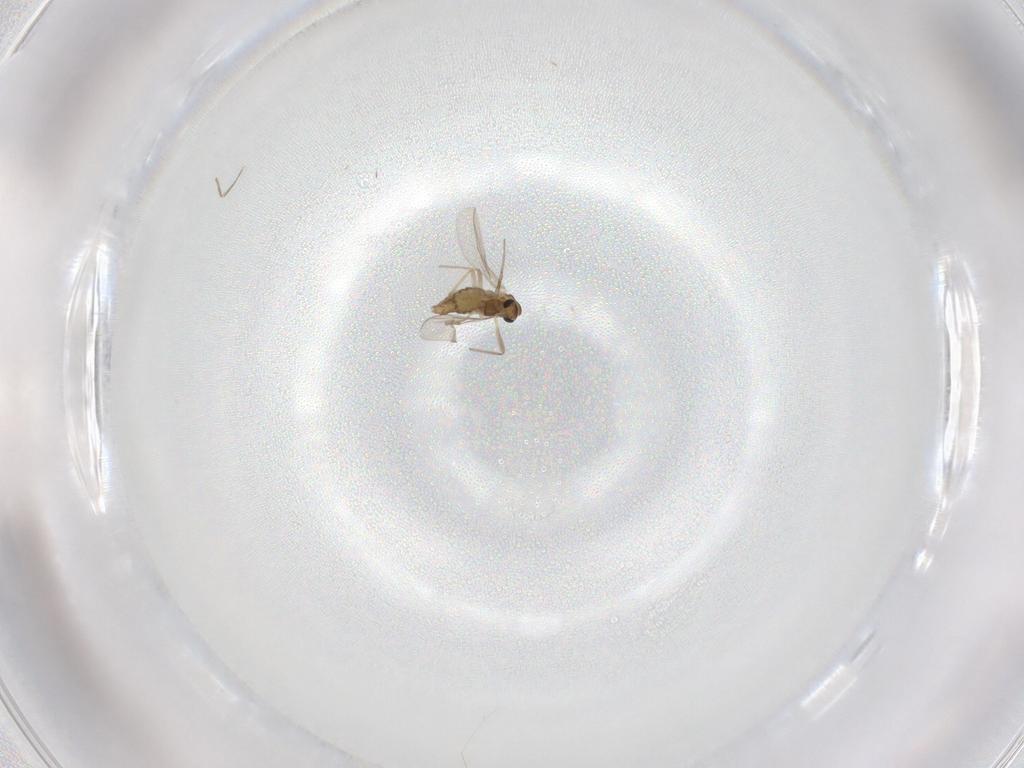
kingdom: Animalia
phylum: Arthropoda
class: Insecta
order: Diptera
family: Chironomidae
